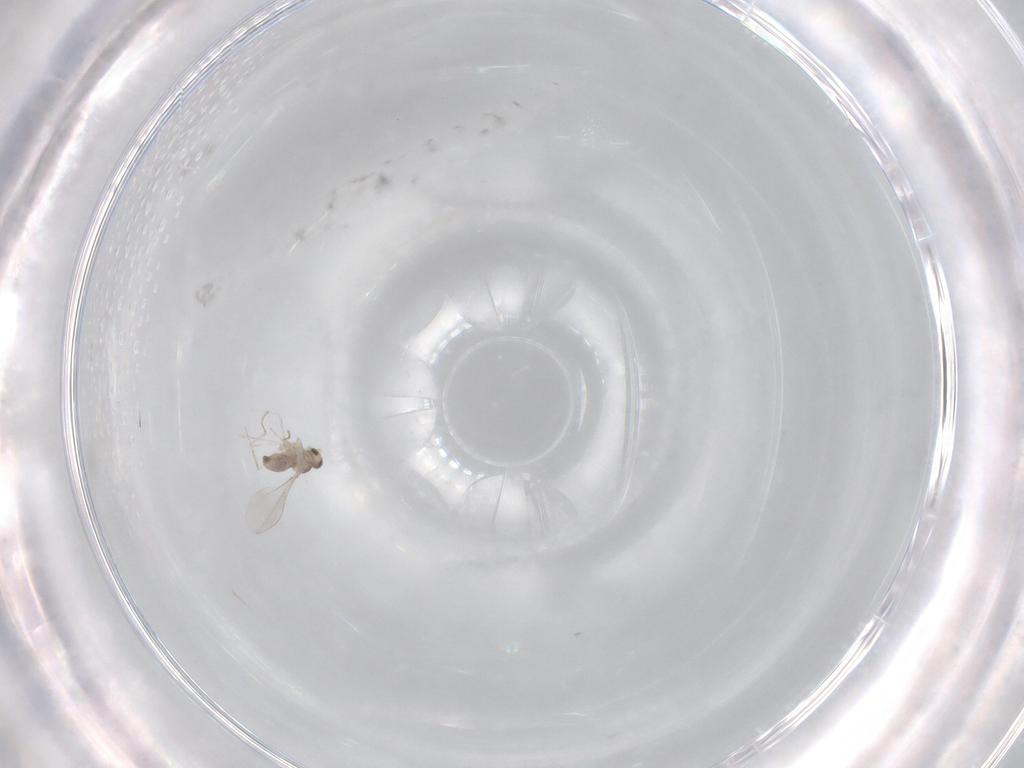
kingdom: Animalia
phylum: Arthropoda
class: Insecta
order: Diptera
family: Cecidomyiidae
